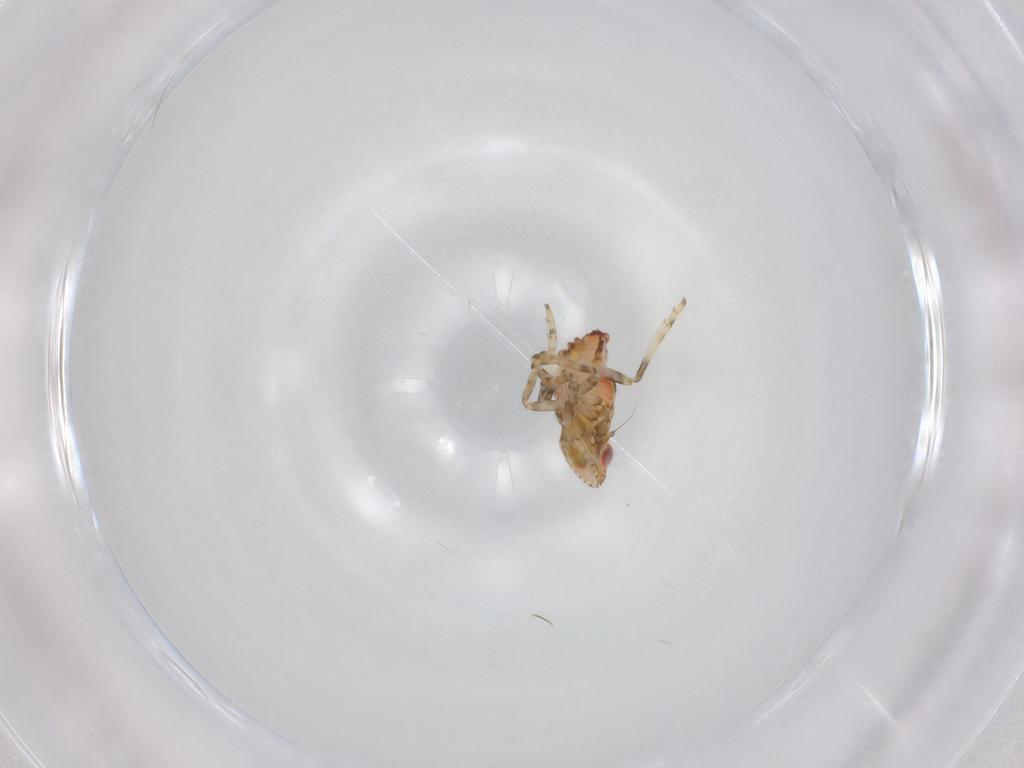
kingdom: Animalia
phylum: Arthropoda
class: Insecta
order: Hemiptera
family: Tropiduchidae
